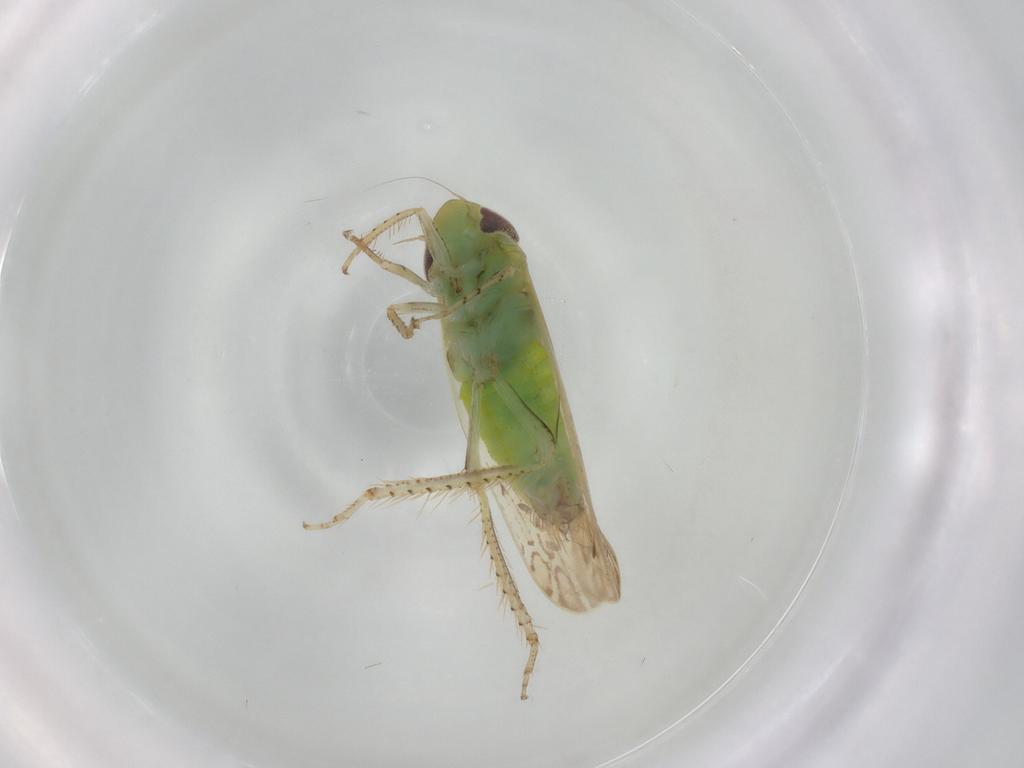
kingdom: Animalia
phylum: Arthropoda
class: Insecta
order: Hemiptera
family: Cicadellidae
